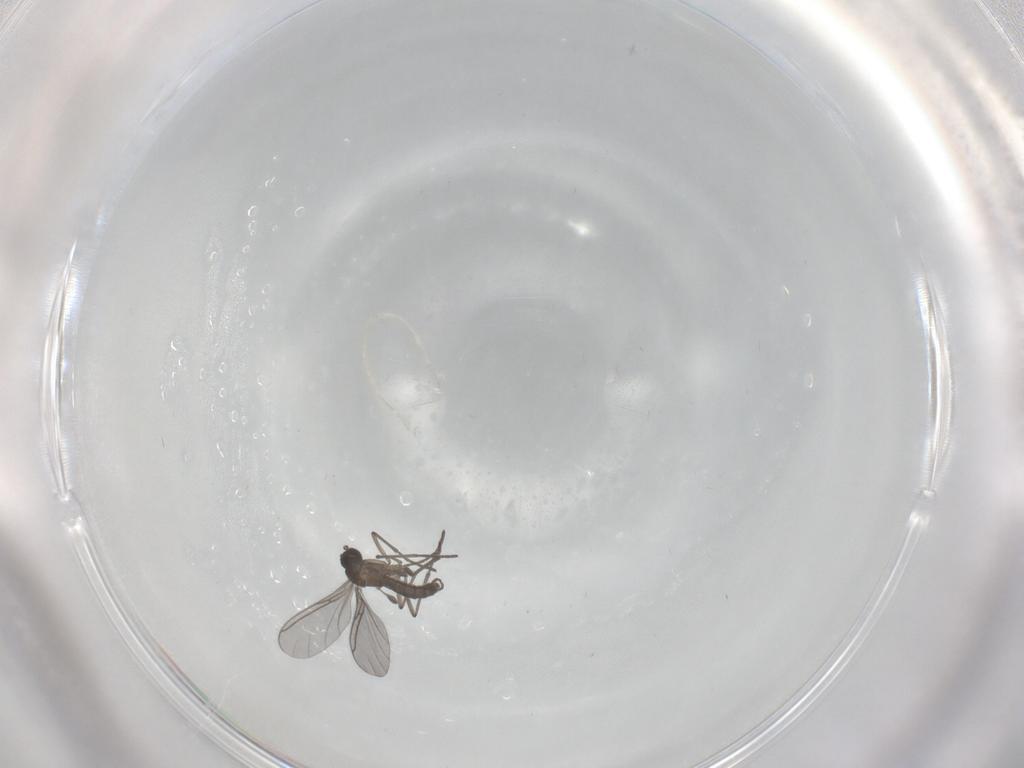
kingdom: Animalia
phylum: Arthropoda
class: Insecta
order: Diptera
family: Sciaridae
